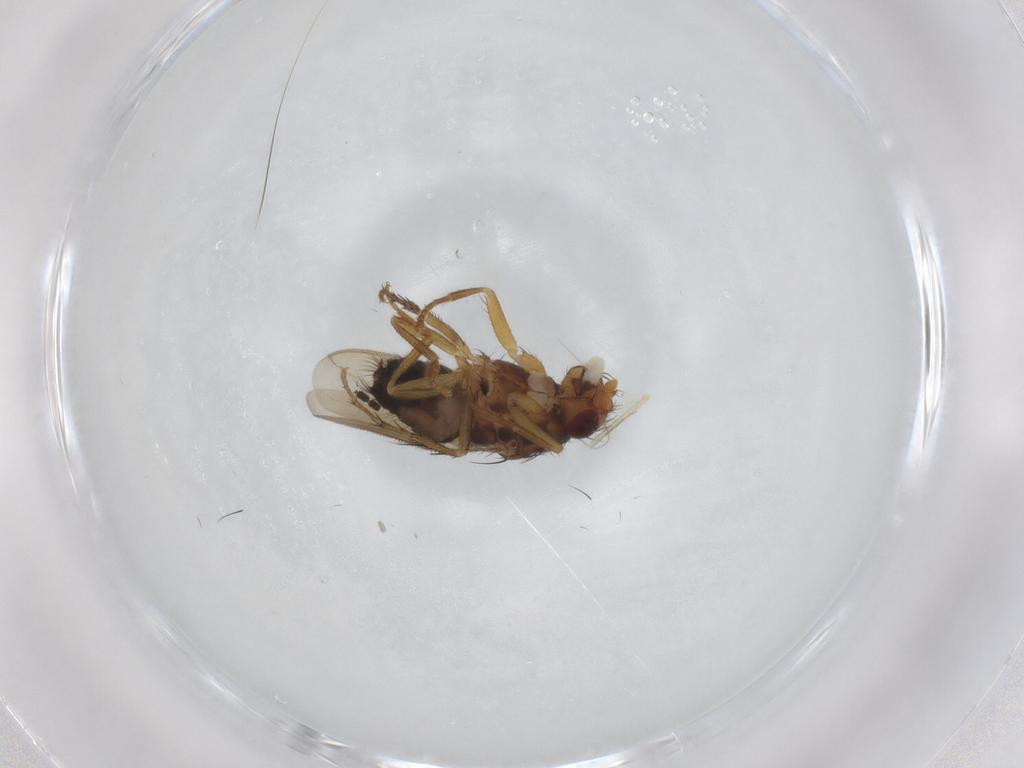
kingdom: Animalia
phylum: Arthropoda
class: Insecta
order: Diptera
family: Sphaeroceridae
